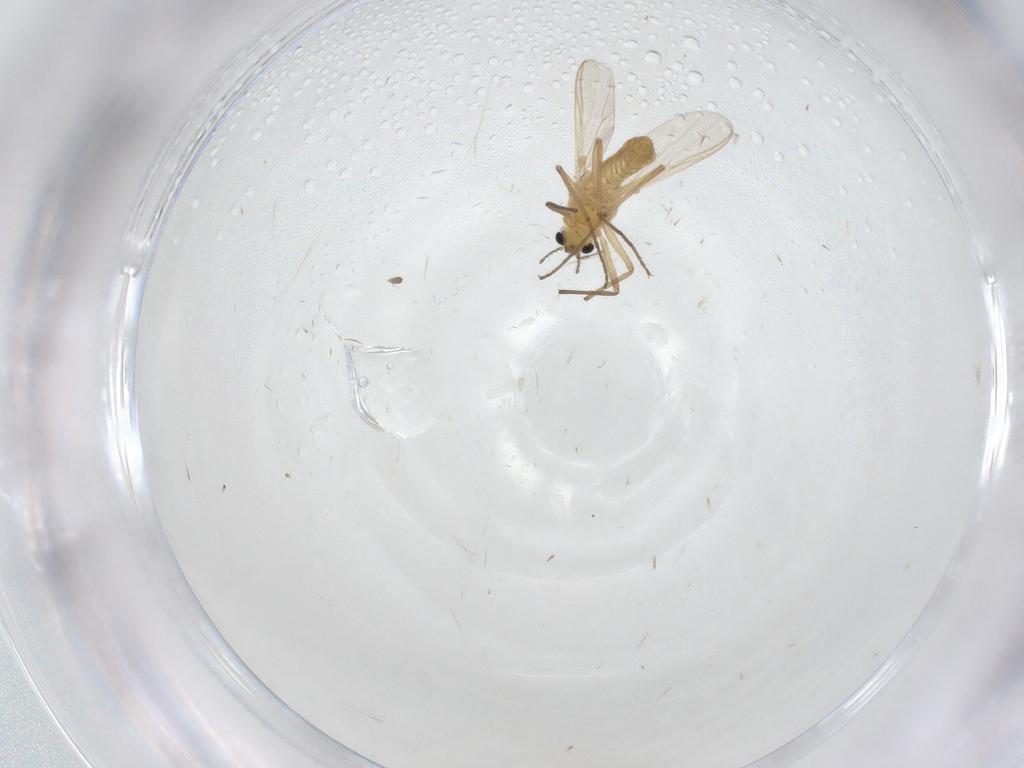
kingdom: Animalia
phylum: Arthropoda
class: Insecta
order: Diptera
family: Chironomidae
